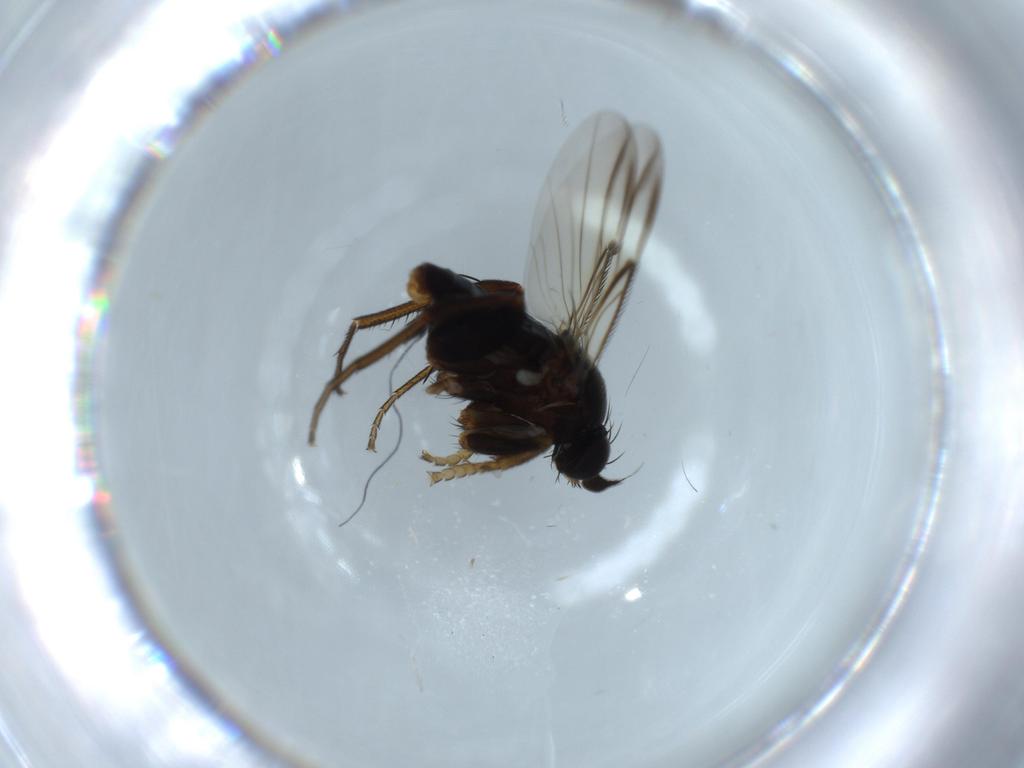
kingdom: Animalia
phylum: Arthropoda
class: Insecta
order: Diptera
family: Phoridae
